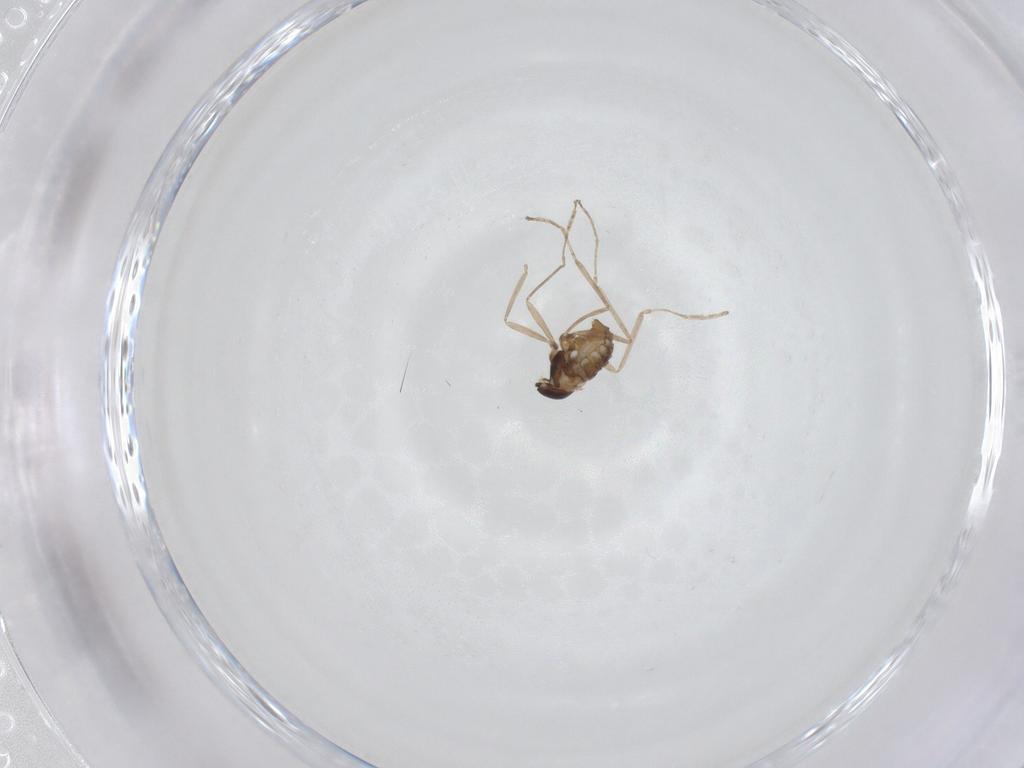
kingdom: Animalia
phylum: Arthropoda
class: Insecta
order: Diptera
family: Cecidomyiidae
